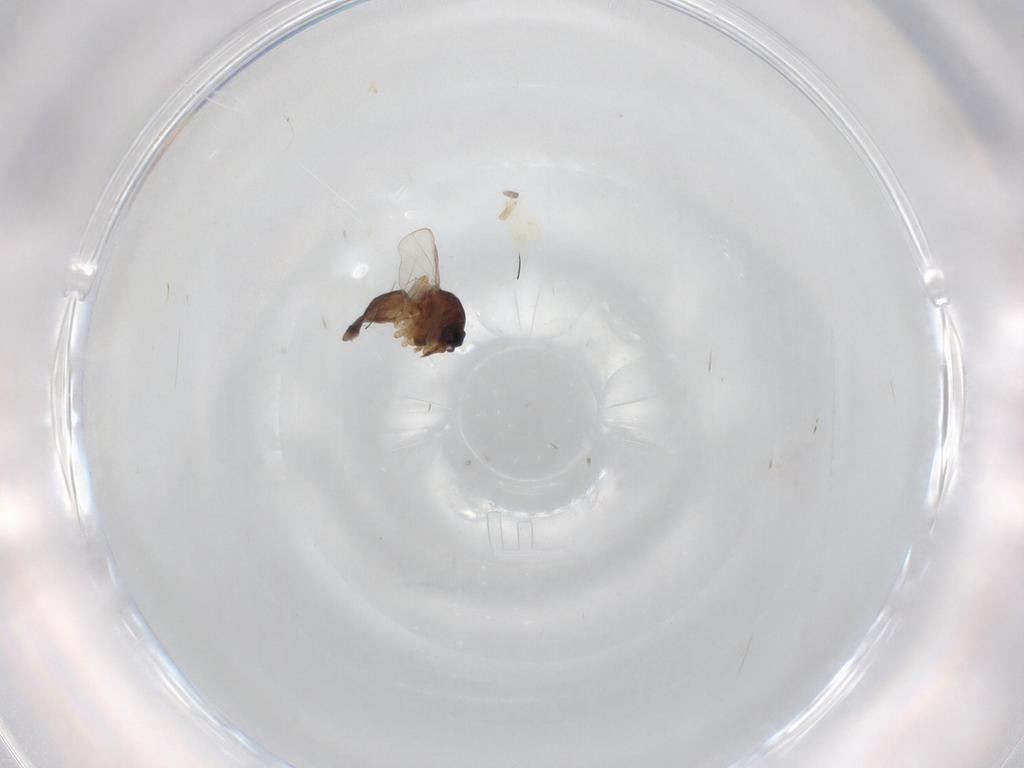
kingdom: Animalia
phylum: Arthropoda
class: Insecta
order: Diptera
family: Ceratopogonidae
